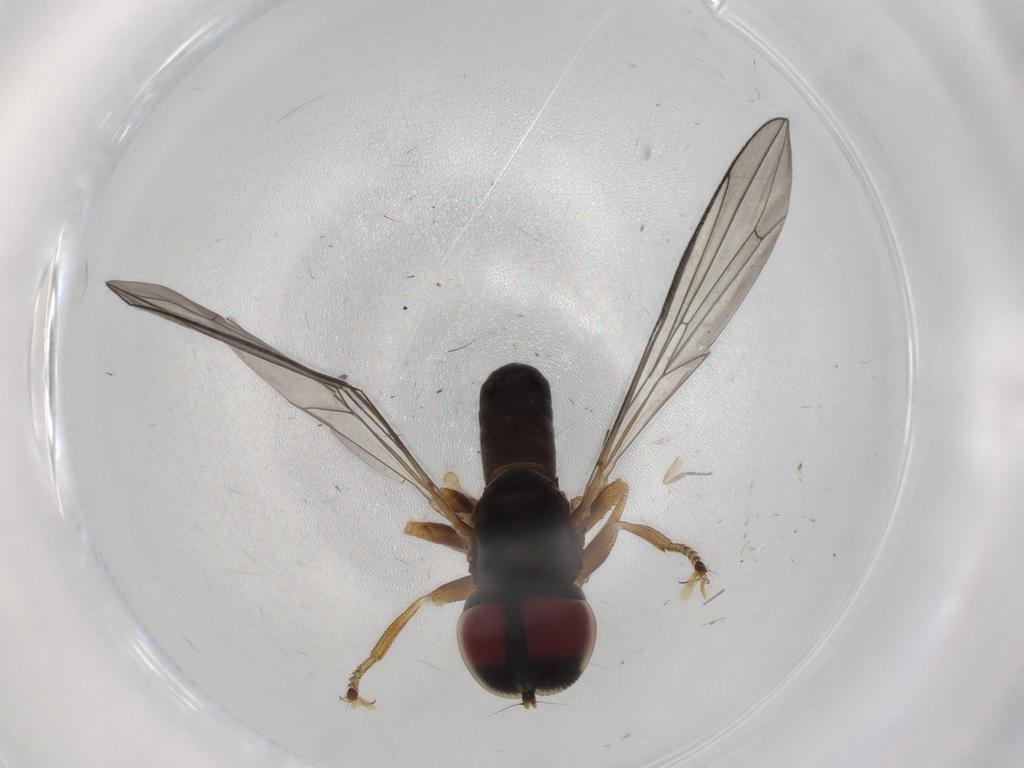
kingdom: Animalia
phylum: Arthropoda
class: Insecta
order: Diptera
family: Pipunculidae
